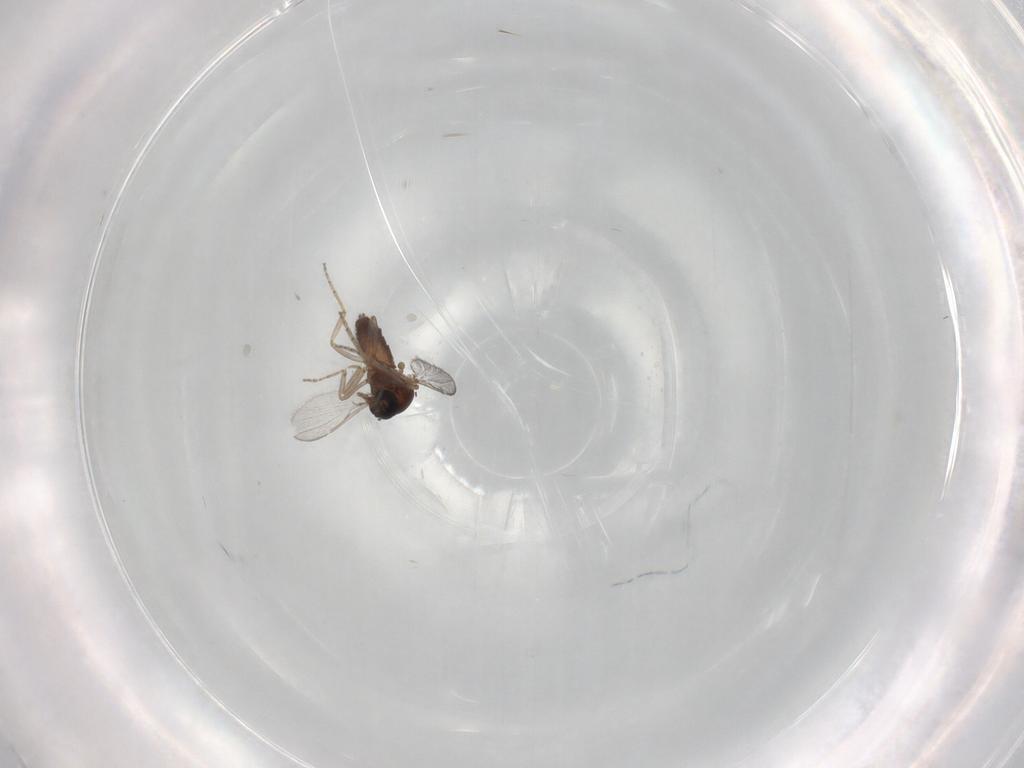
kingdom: Animalia
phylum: Arthropoda
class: Insecta
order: Diptera
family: Ceratopogonidae
